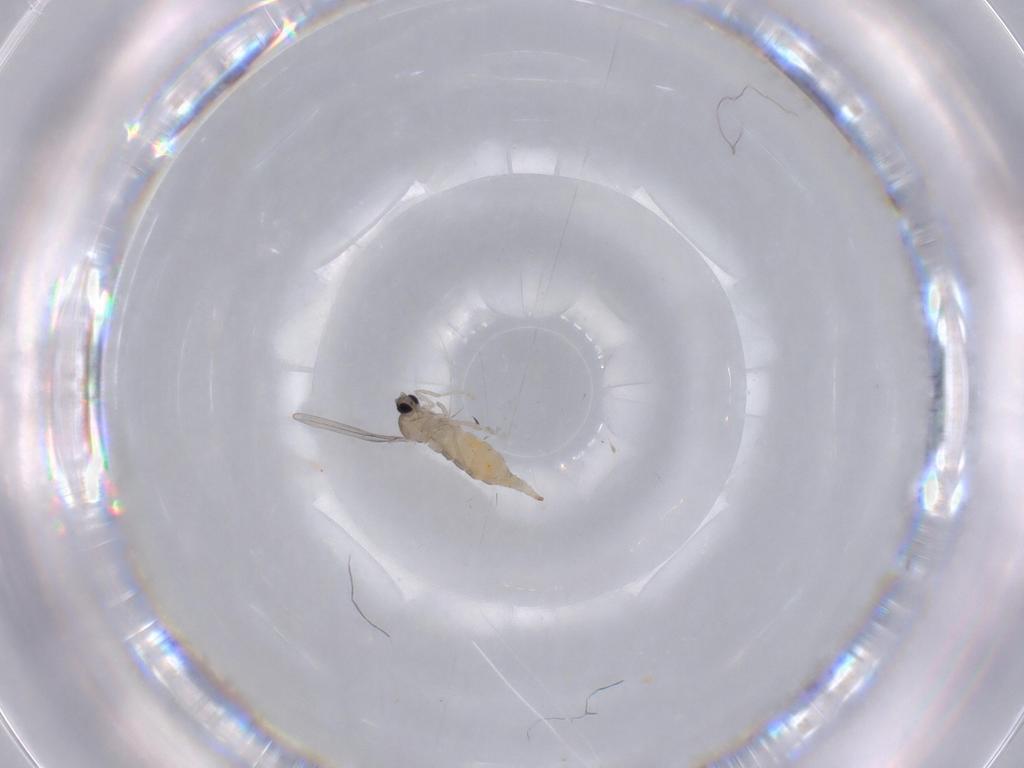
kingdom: Animalia
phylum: Arthropoda
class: Insecta
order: Diptera
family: Cecidomyiidae
